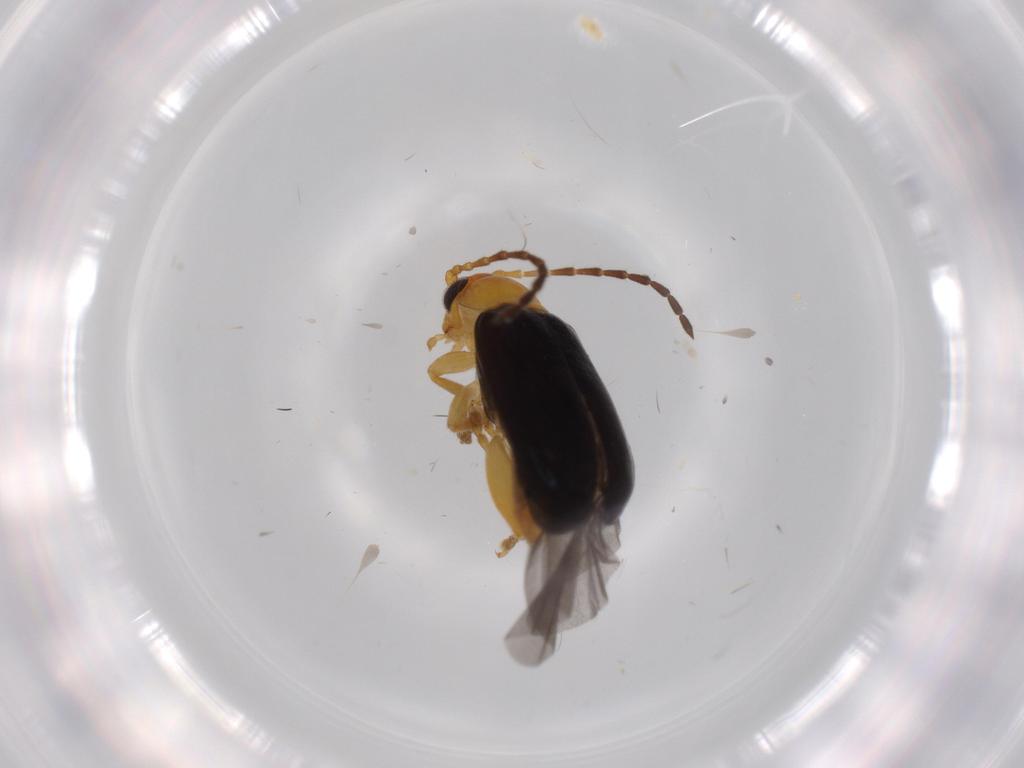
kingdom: Animalia
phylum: Arthropoda
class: Insecta
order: Coleoptera
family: Chrysomelidae
